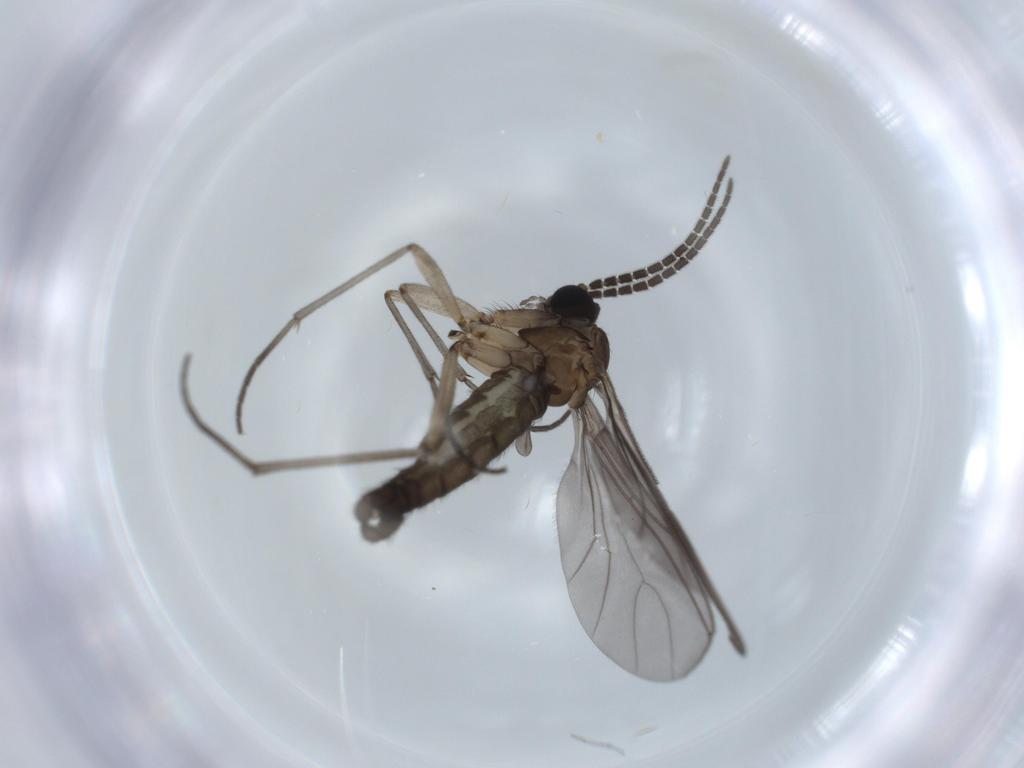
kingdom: Animalia
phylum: Arthropoda
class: Insecta
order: Diptera
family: Sciaridae
